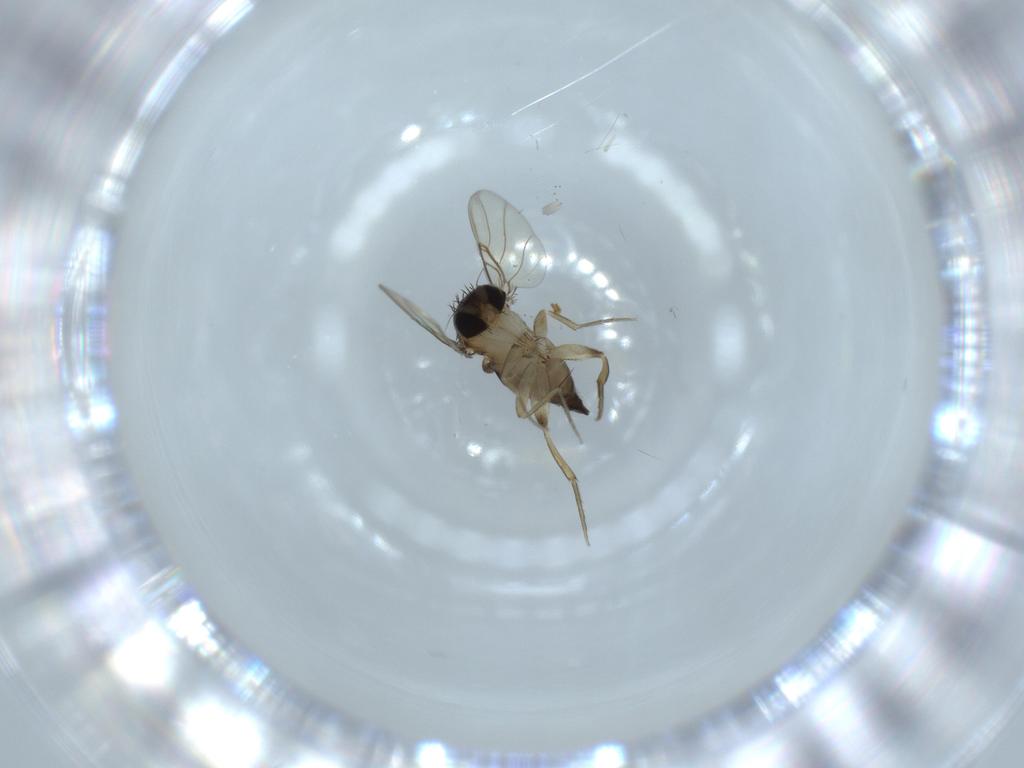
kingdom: Animalia
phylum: Arthropoda
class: Insecta
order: Diptera
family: Phoridae
